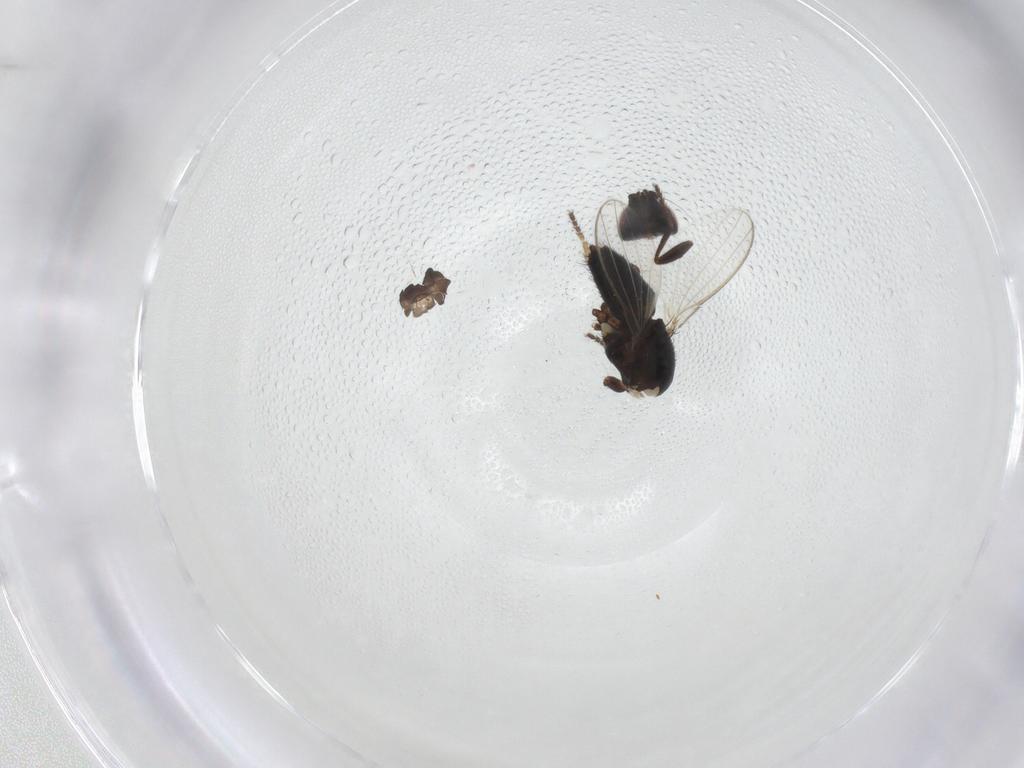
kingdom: Animalia
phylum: Arthropoda
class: Insecta
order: Diptera
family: Milichiidae
